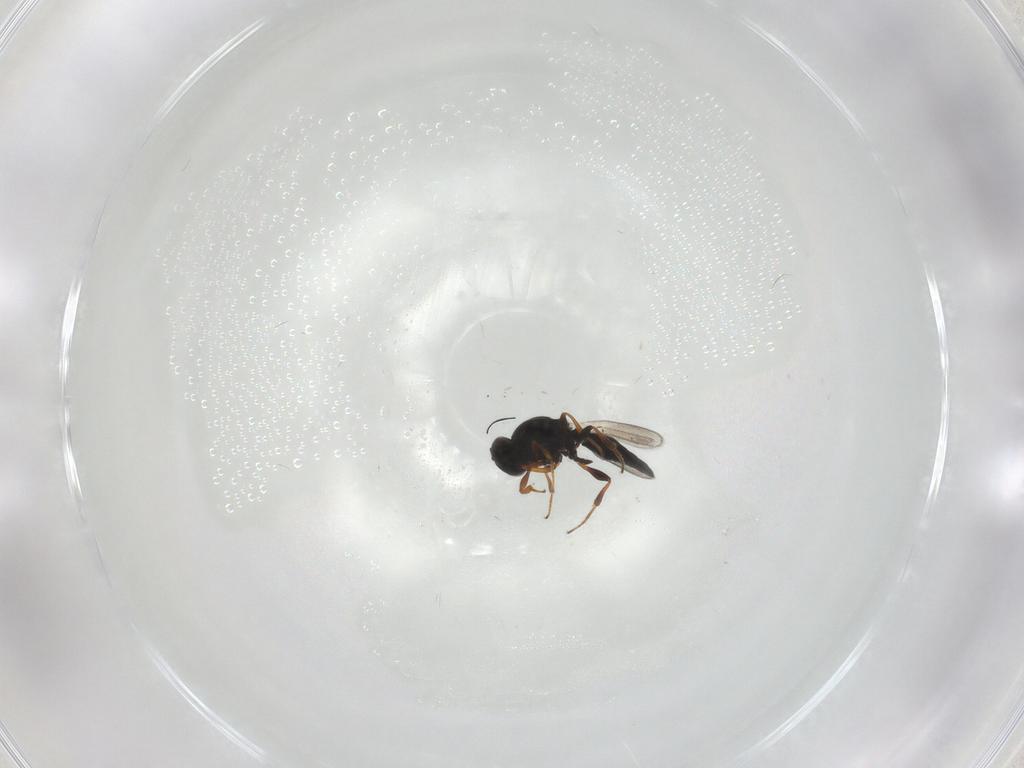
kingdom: Animalia
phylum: Arthropoda
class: Insecta
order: Hymenoptera
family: Platygastridae
